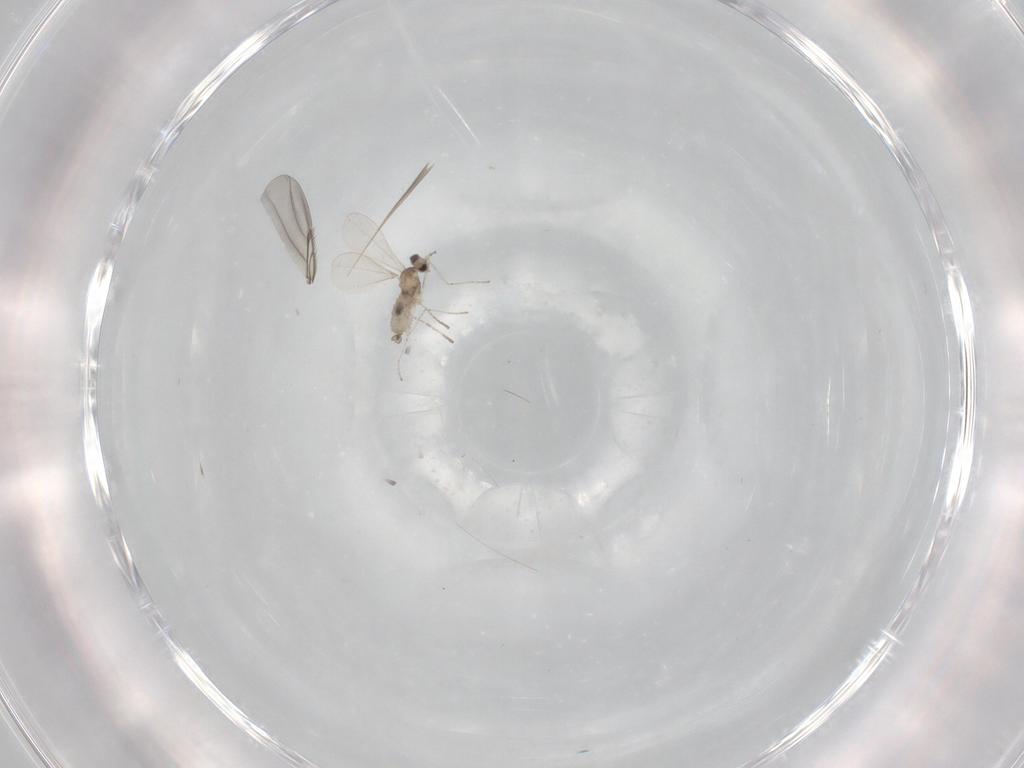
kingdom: Animalia
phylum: Arthropoda
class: Insecta
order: Diptera
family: Cecidomyiidae
